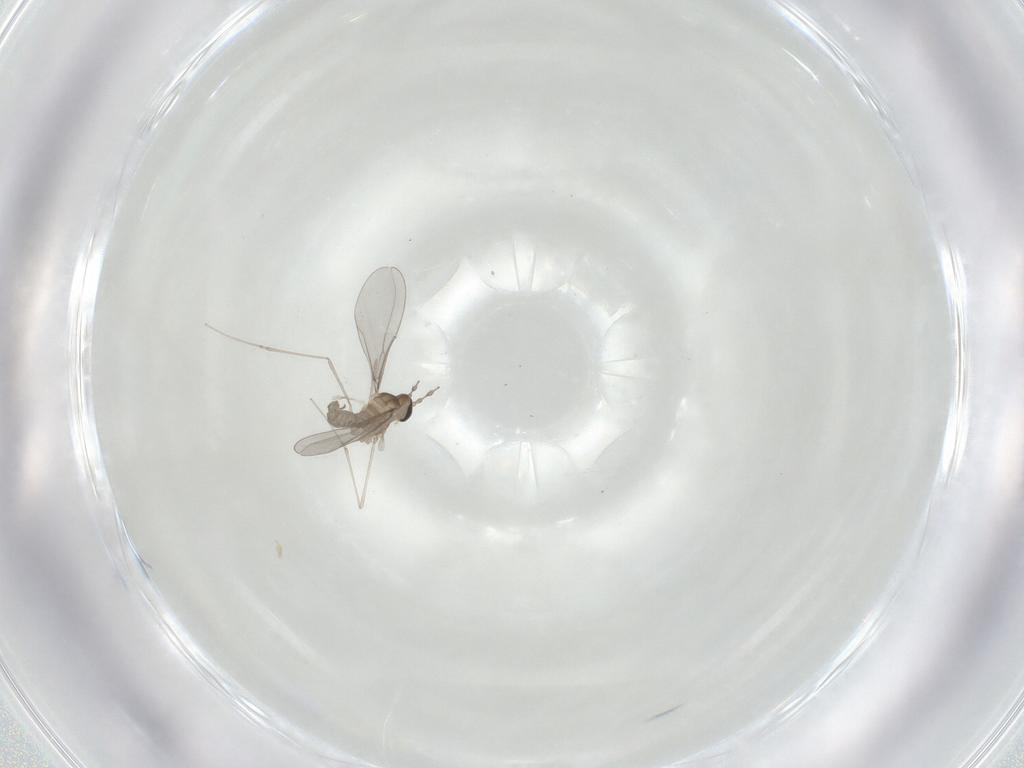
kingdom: Animalia
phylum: Arthropoda
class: Insecta
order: Diptera
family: Cecidomyiidae
